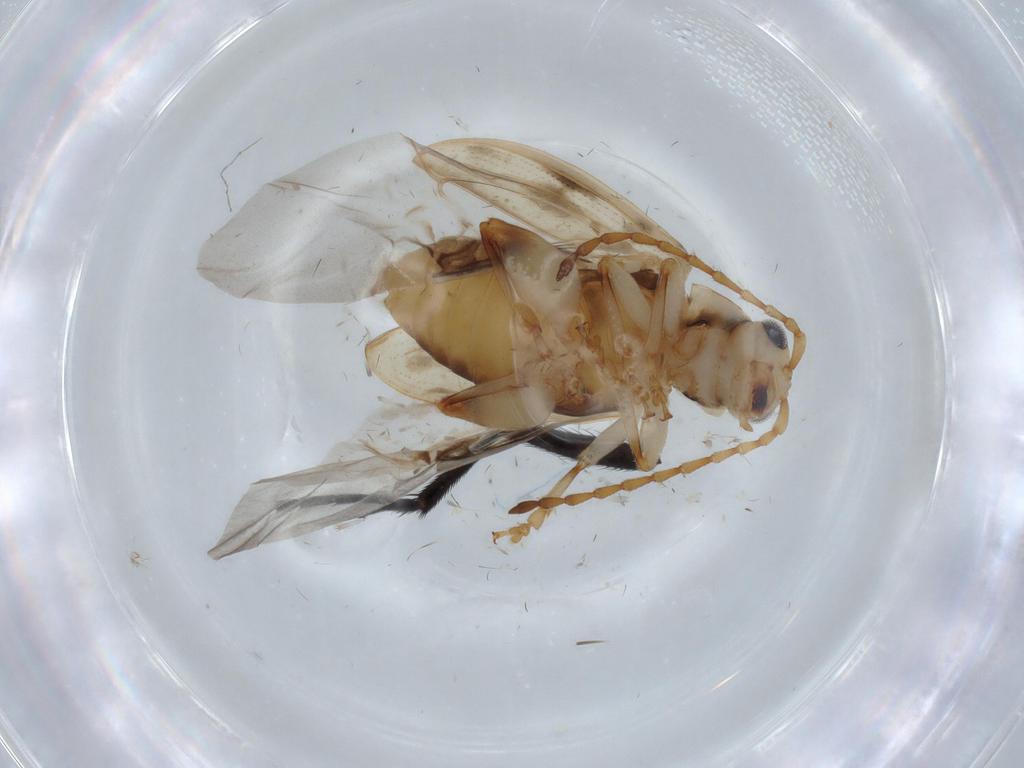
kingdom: Animalia
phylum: Arthropoda
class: Insecta
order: Coleoptera
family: Chrysomelidae
